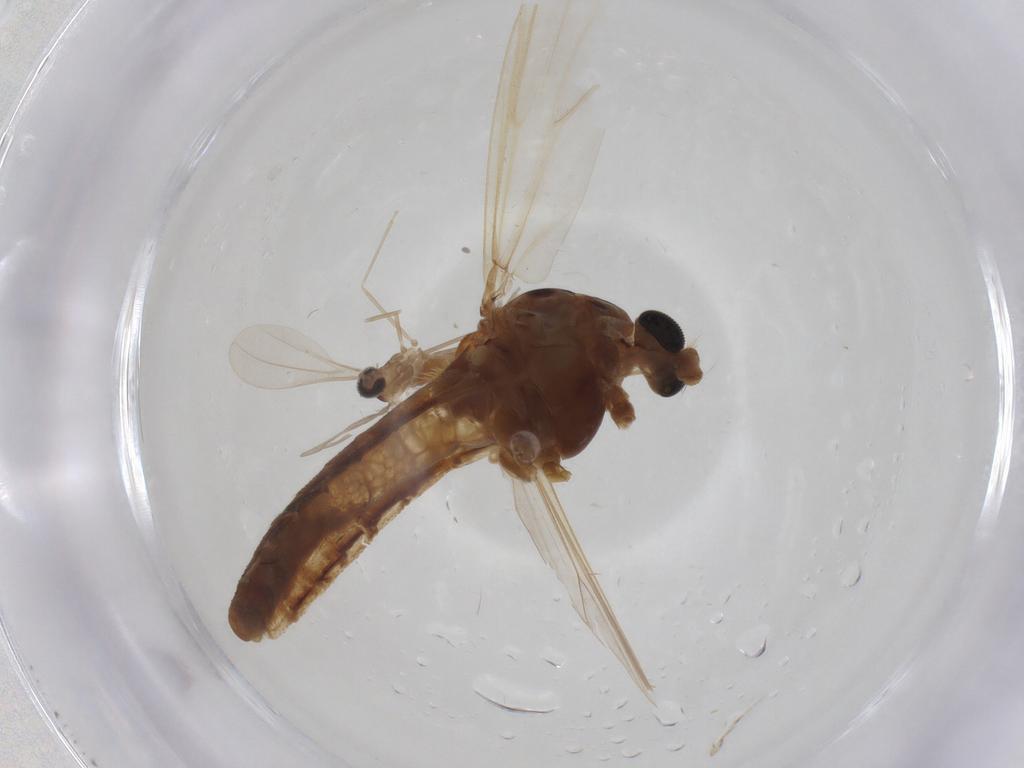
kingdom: Animalia
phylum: Arthropoda
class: Insecta
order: Diptera
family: Cecidomyiidae
